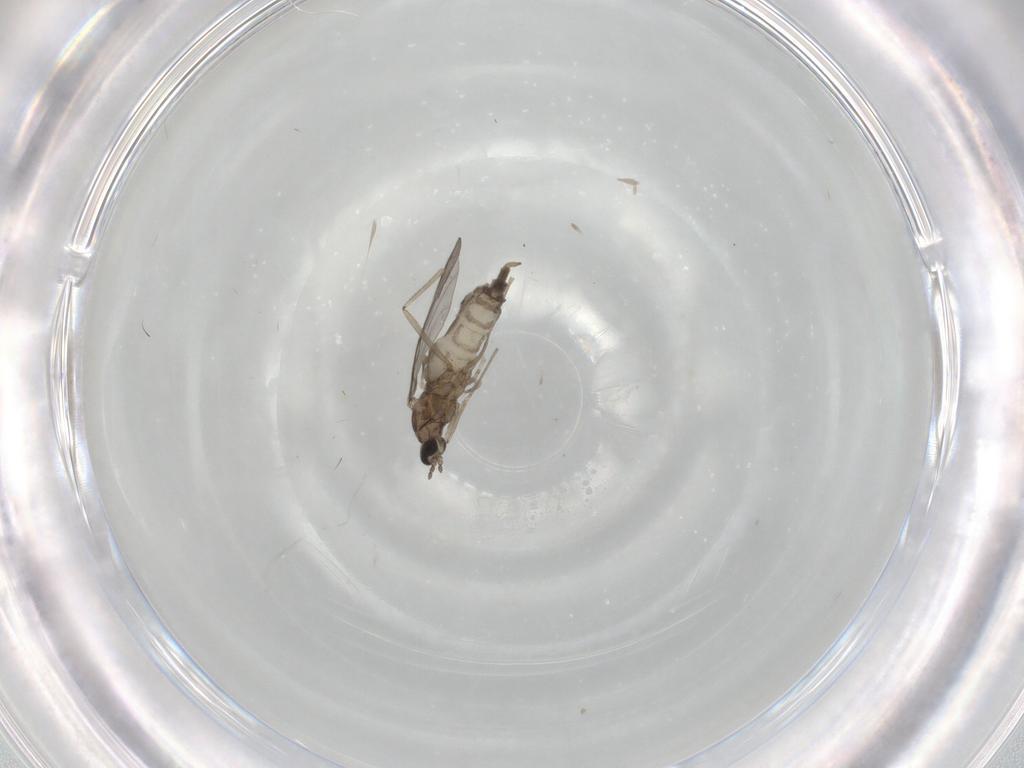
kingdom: Animalia
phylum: Arthropoda
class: Insecta
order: Diptera
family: Cecidomyiidae
